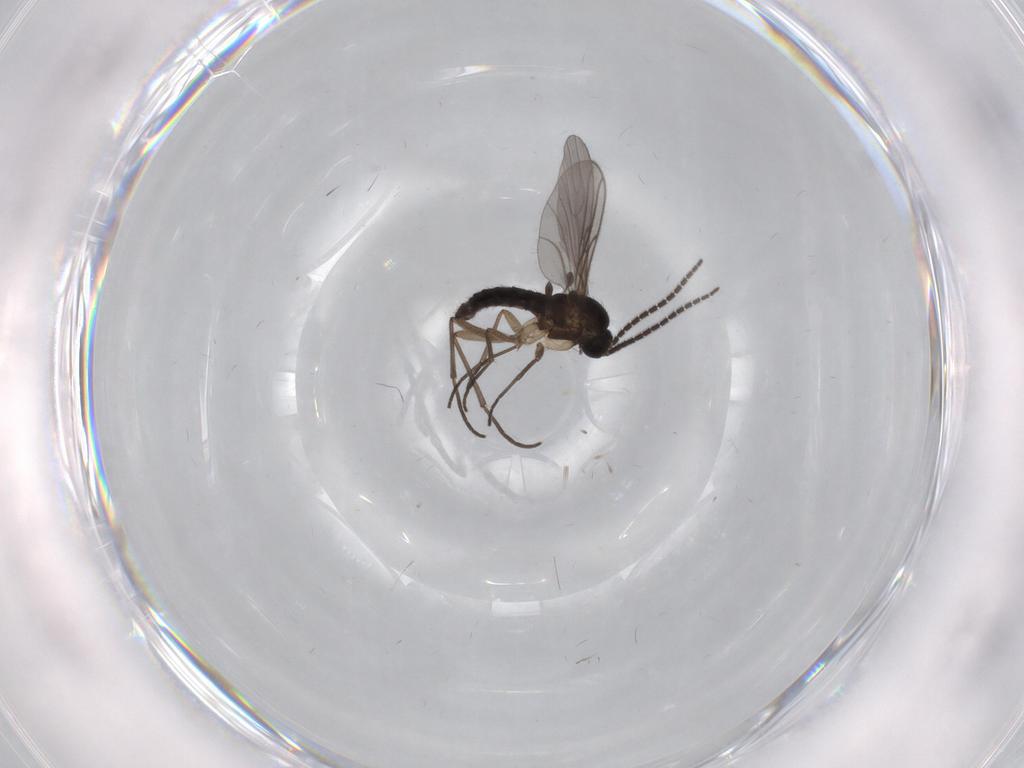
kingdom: Animalia
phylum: Arthropoda
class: Insecta
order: Diptera
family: Sciaridae
